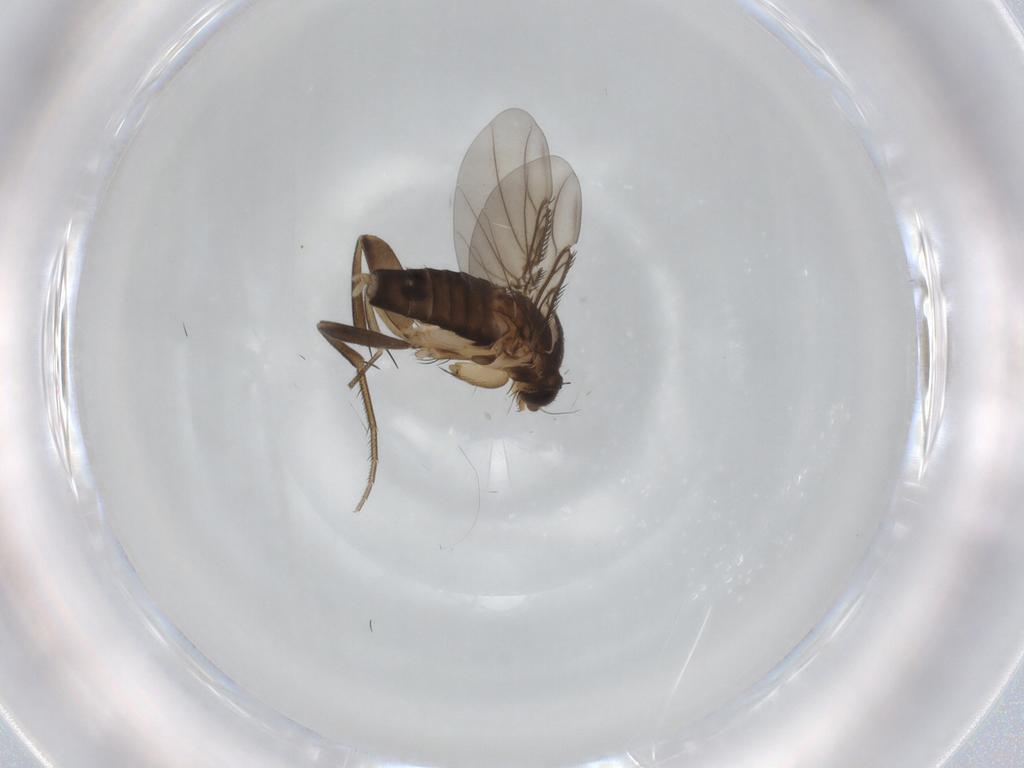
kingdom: Animalia
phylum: Arthropoda
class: Insecta
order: Diptera
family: Phoridae
